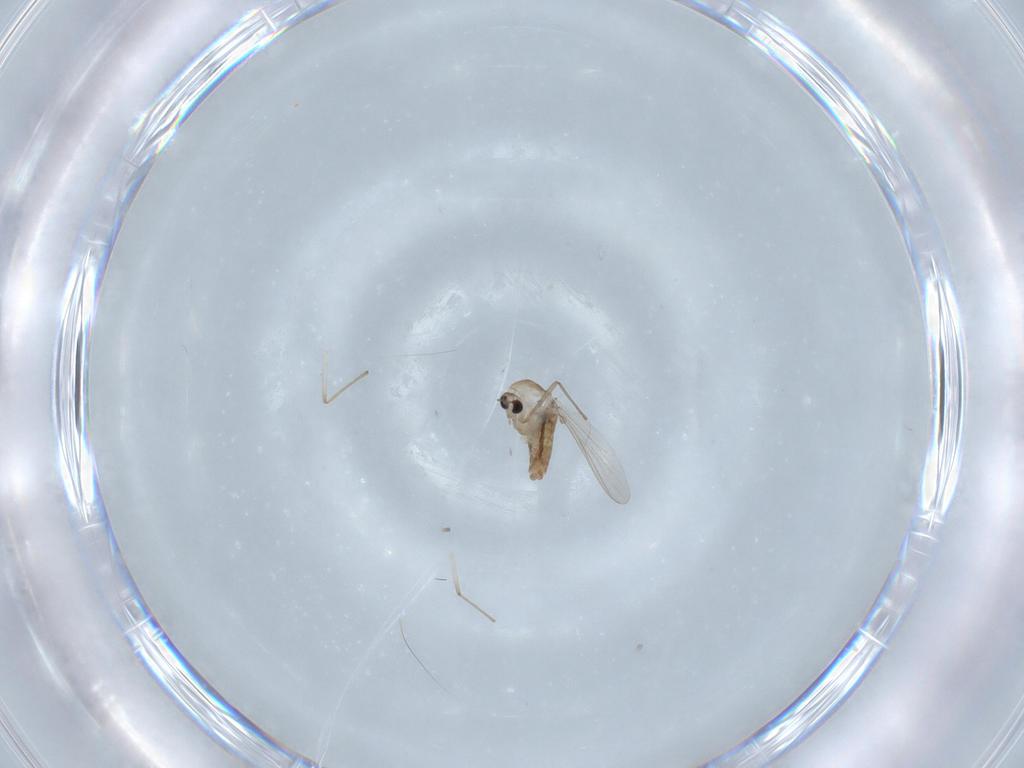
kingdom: Animalia
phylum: Arthropoda
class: Insecta
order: Diptera
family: Chironomidae
